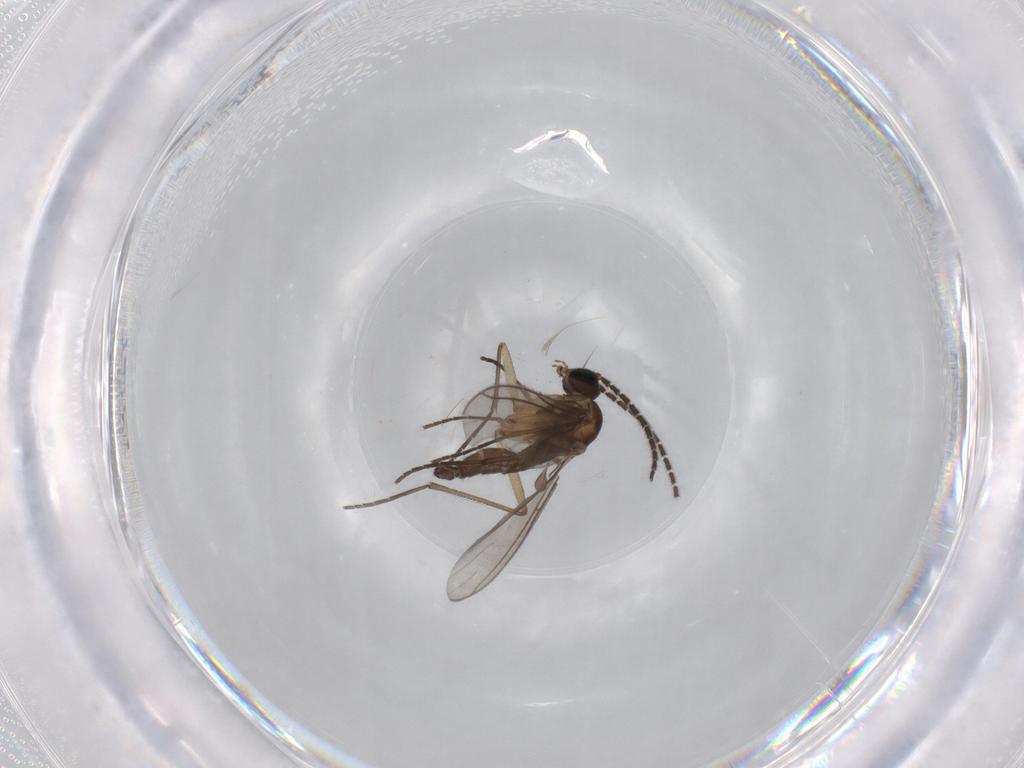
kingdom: Animalia
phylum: Arthropoda
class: Insecta
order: Diptera
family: Sciaridae
